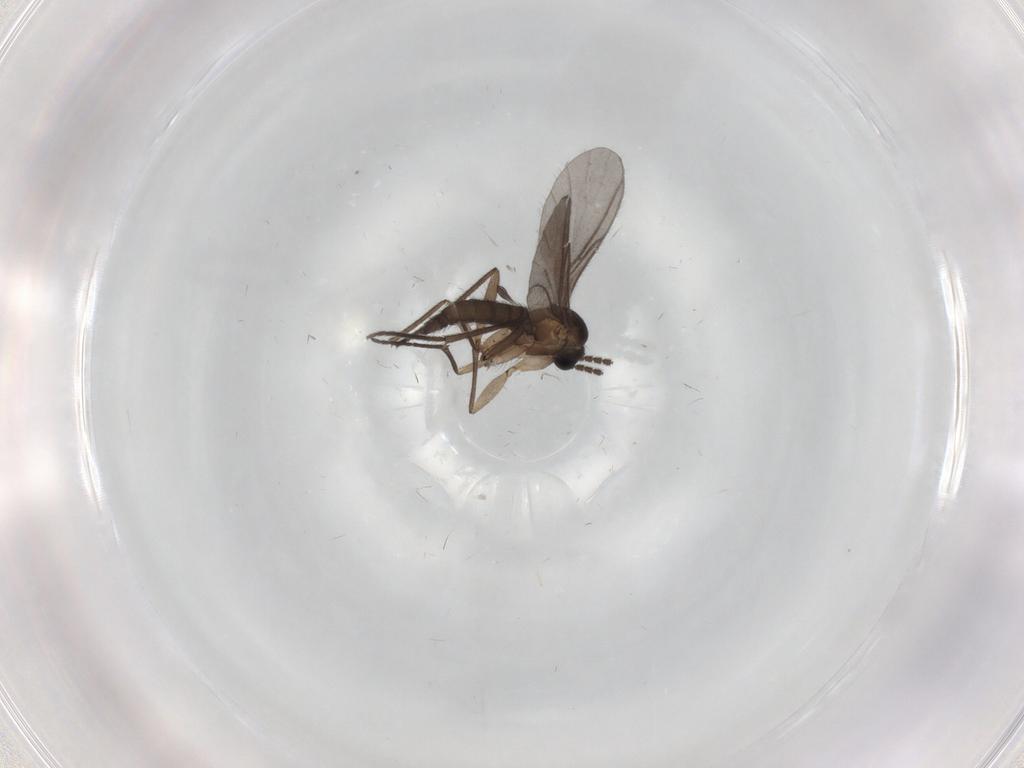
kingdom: Animalia
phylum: Arthropoda
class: Insecta
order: Diptera
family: Sciaridae
